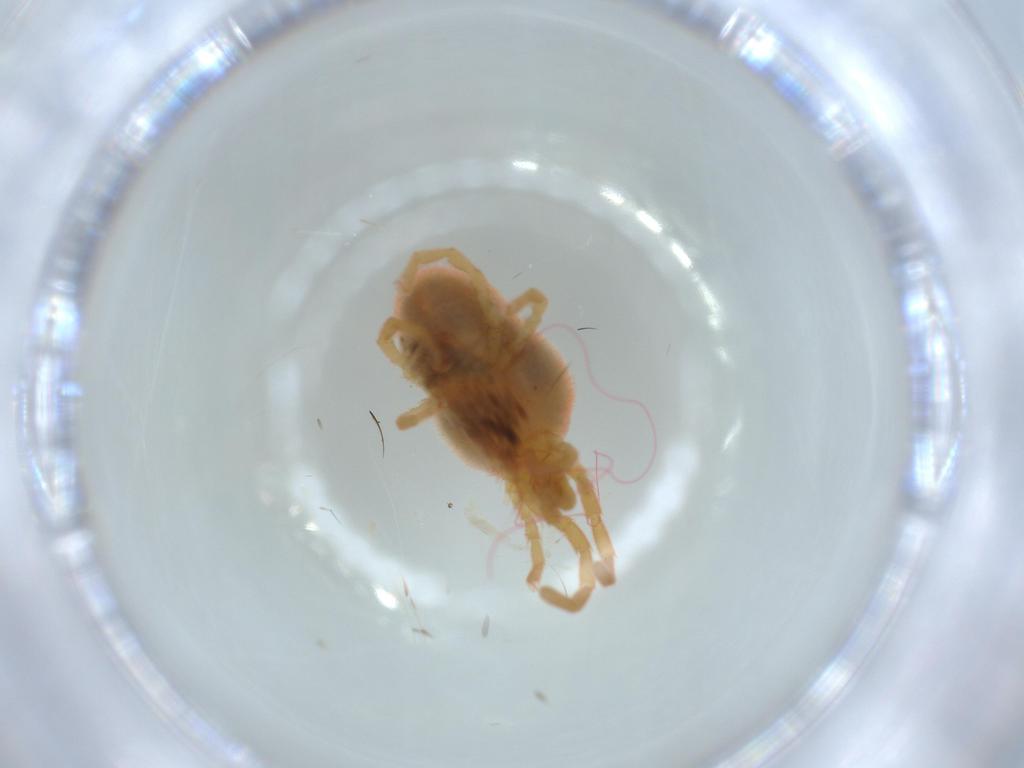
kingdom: Animalia
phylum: Arthropoda
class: Arachnida
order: Trombidiformes
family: Trombidiidae
